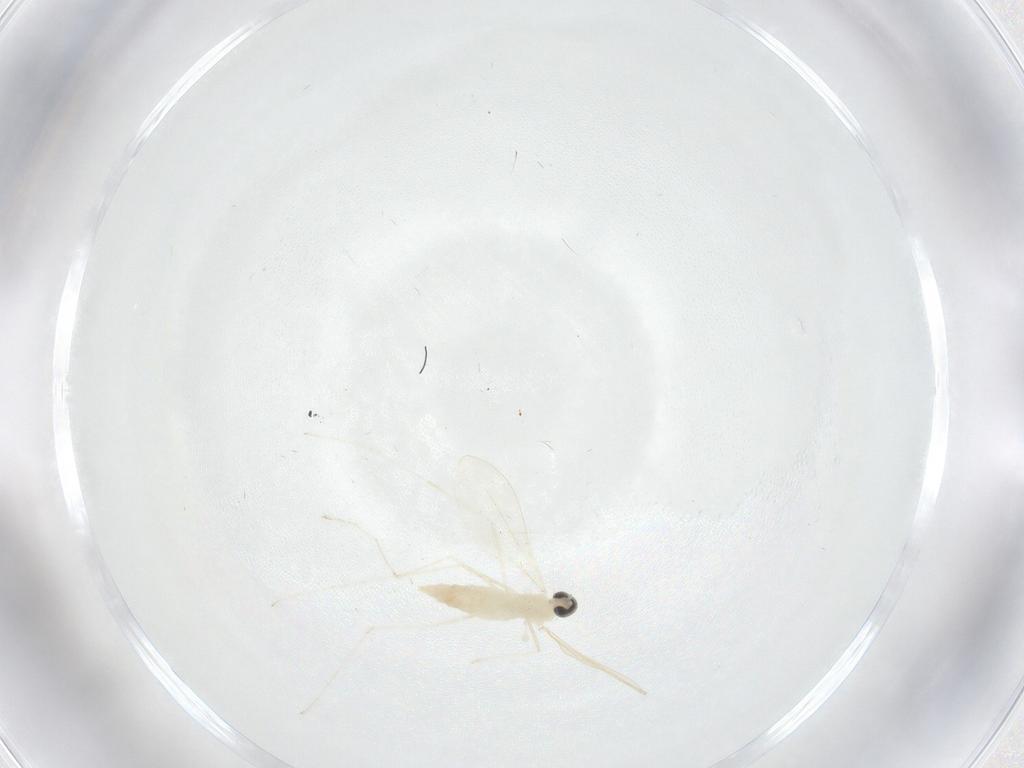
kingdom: Animalia
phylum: Arthropoda
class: Insecta
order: Diptera
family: Cecidomyiidae
